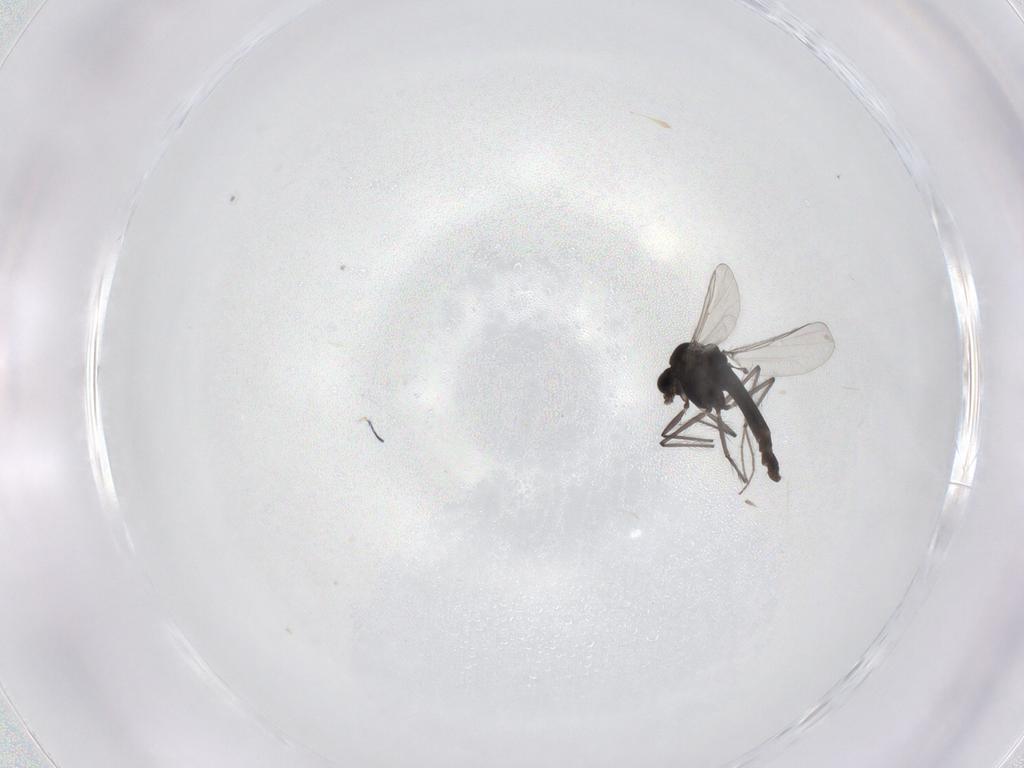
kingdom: Animalia
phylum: Arthropoda
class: Insecta
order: Diptera
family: Chironomidae
